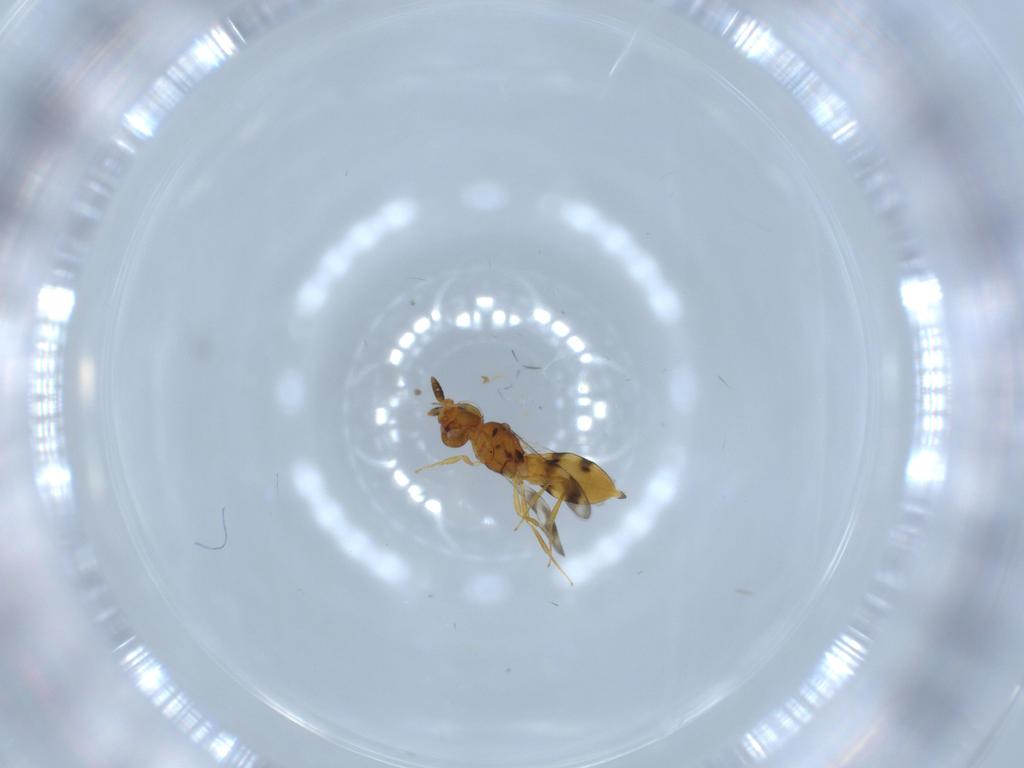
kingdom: Animalia
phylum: Arthropoda
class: Insecta
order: Hymenoptera
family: Scelionidae
